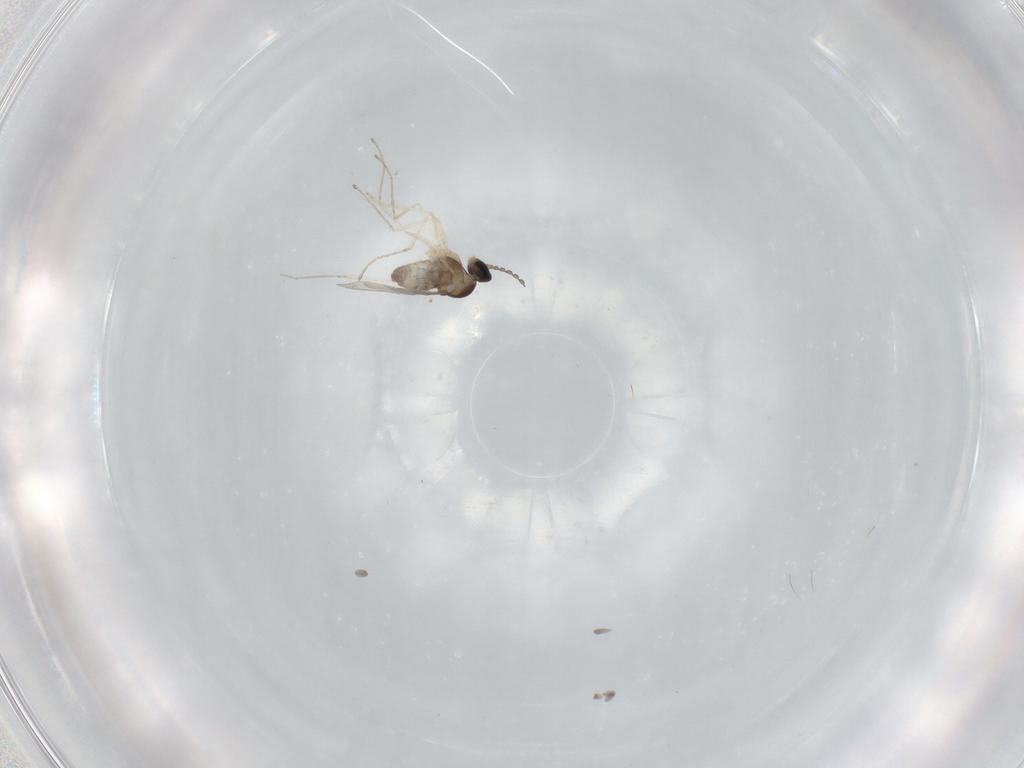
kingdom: Animalia
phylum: Arthropoda
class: Insecta
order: Diptera
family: Cecidomyiidae
